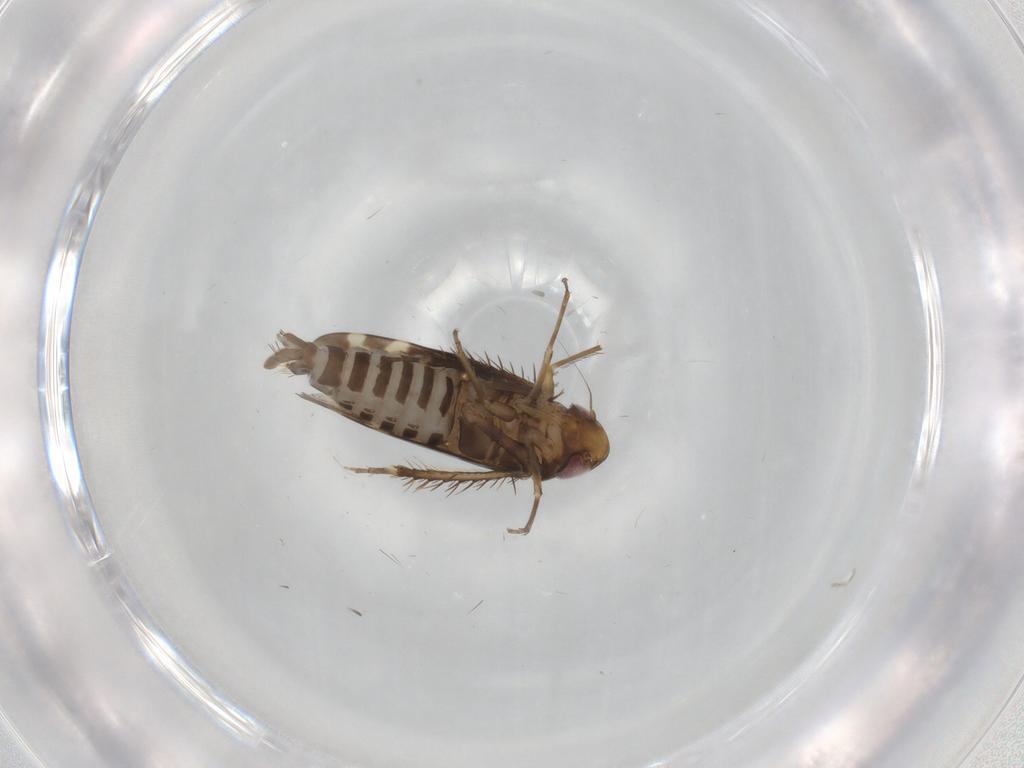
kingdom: Animalia
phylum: Arthropoda
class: Insecta
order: Hemiptera
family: Cicadellidae
